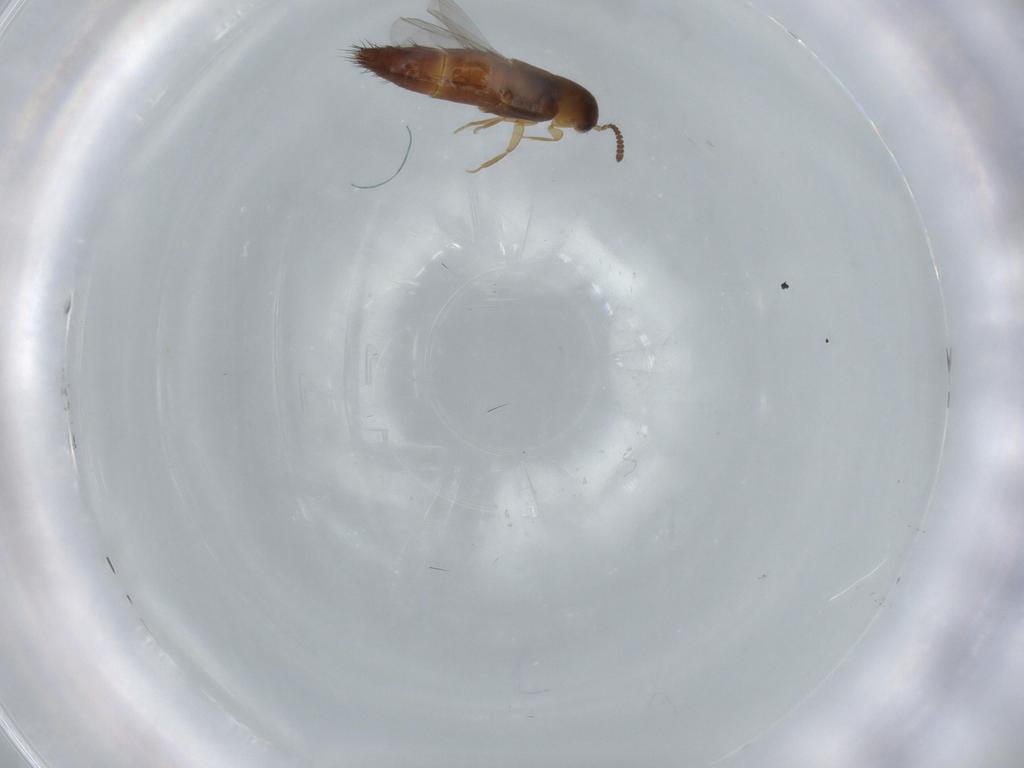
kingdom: Animalia
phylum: Arthropoda
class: Insecta
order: Coleoptera
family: Staphylinidae
